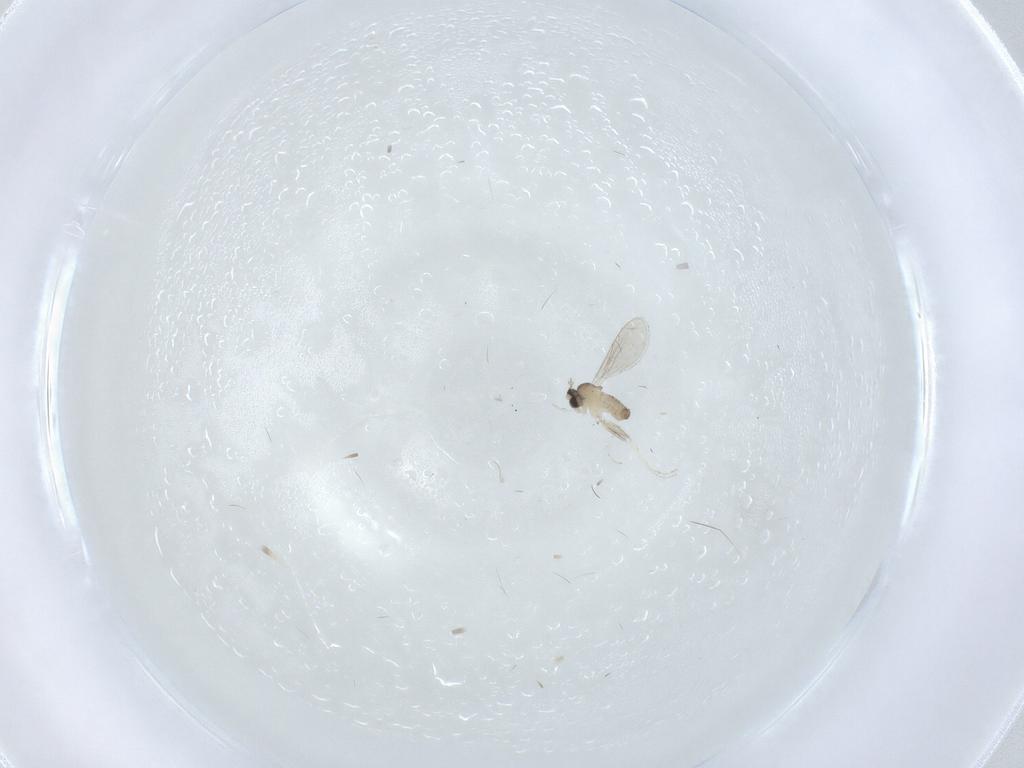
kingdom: Animalia
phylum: Arthropoda
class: Insecta
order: Diptera
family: Cecidomyiidae
